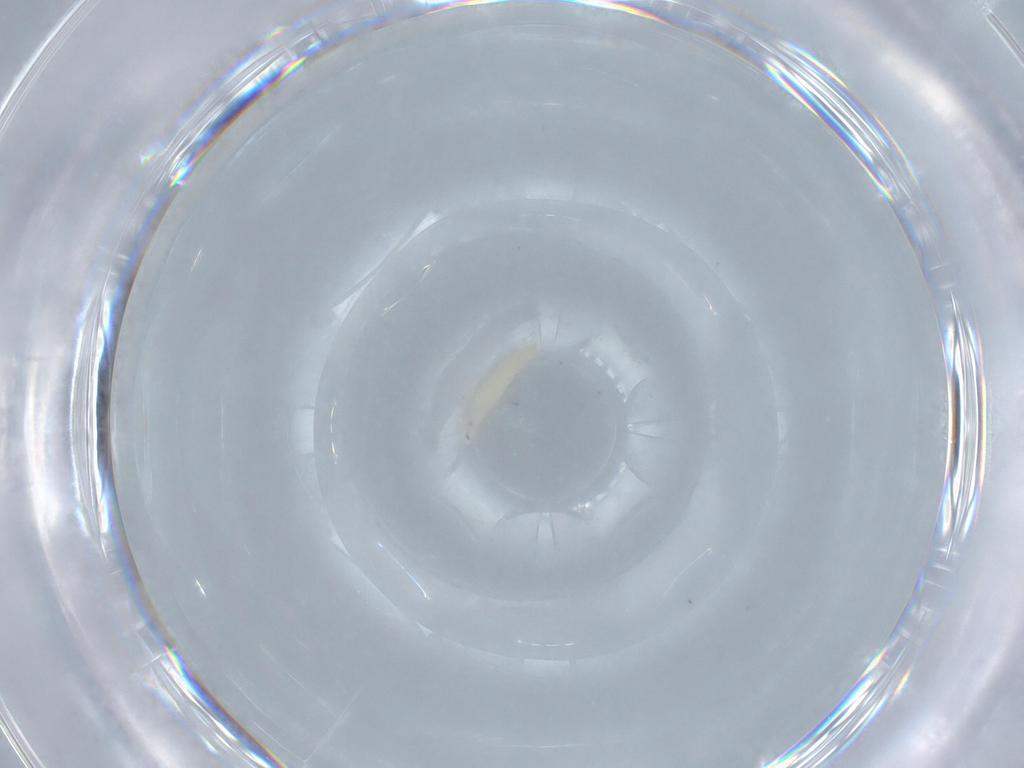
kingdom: Animalia
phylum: Arthropoda
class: Insecta
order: Diptera
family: Sarcophagidae
